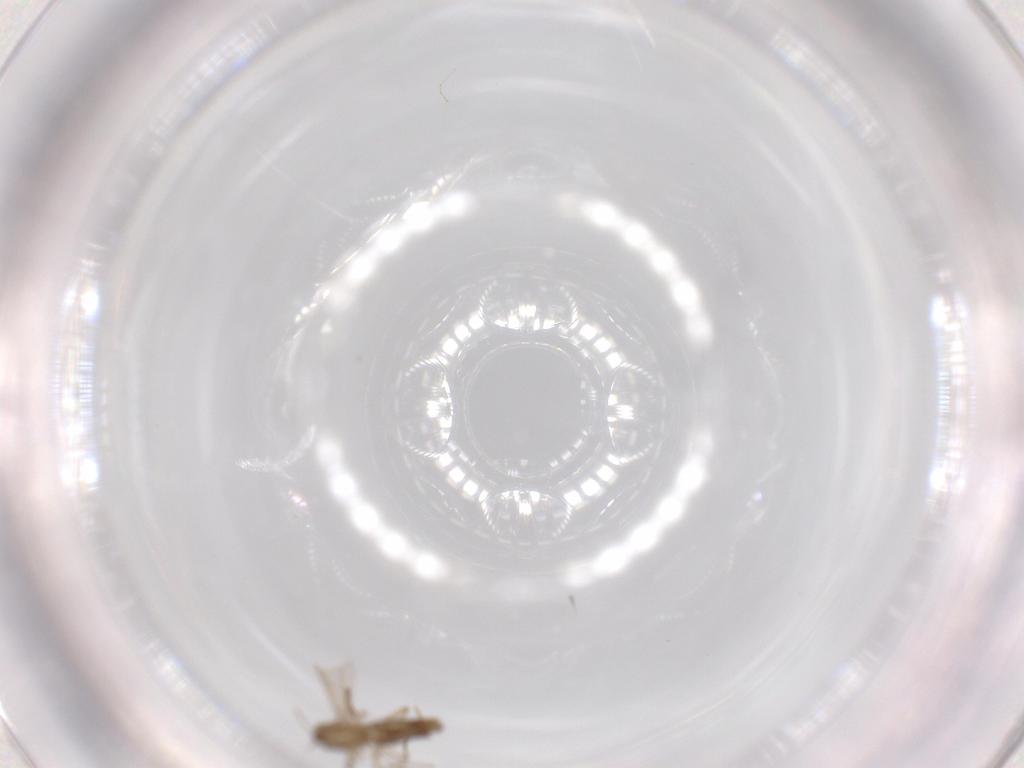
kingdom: Animalia
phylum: Arthropoda
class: Insecta
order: Diptera
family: Chironomidae
